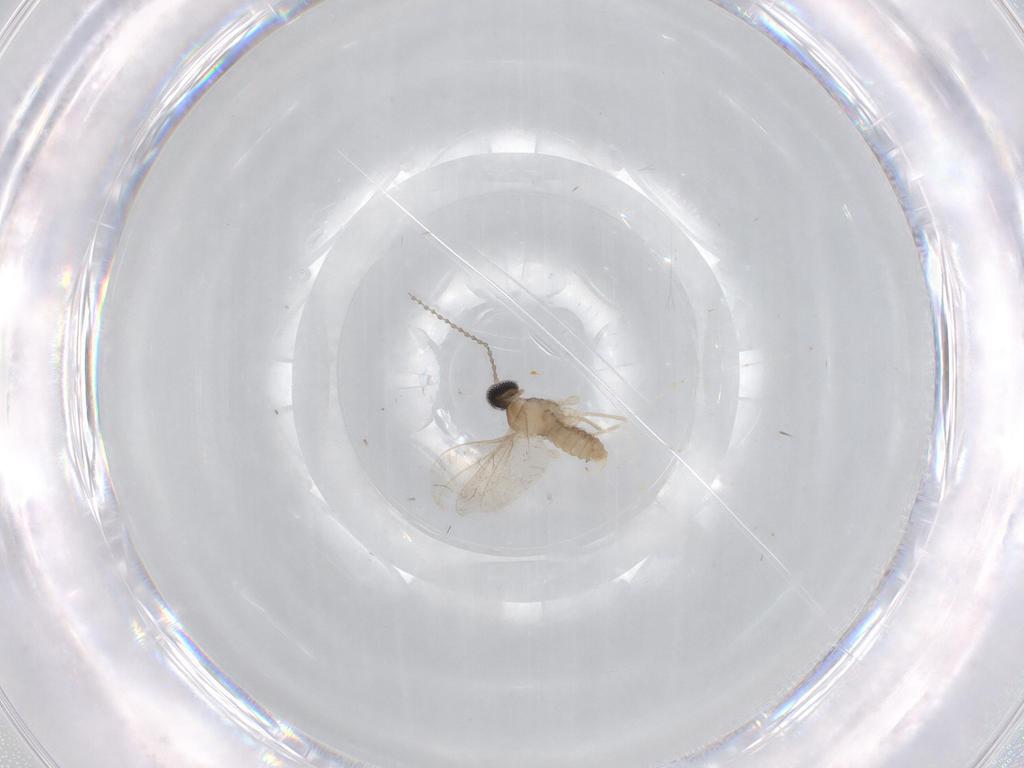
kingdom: Animalia
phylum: Arthropoda
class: Insecta
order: Diptera
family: Cecidomyiidae
